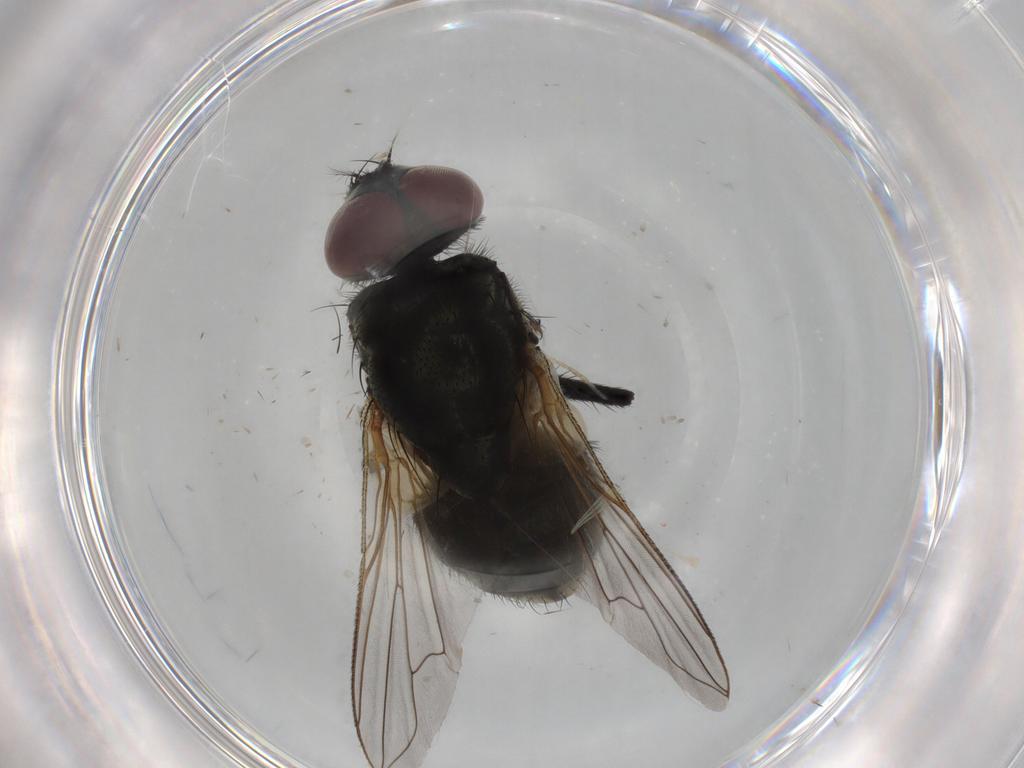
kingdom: Animalia
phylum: Arthropoda
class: Insecta
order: Diptera
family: Muscidae
